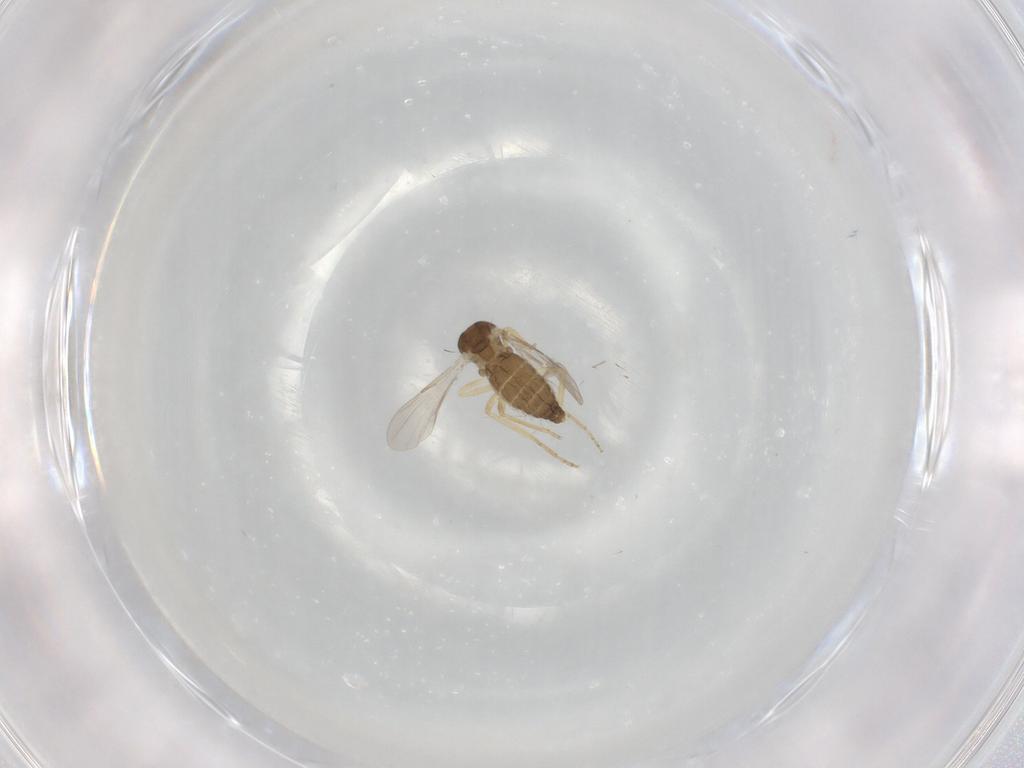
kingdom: Animalia
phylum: Arthropoda
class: Insecta
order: Diptera
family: Ceratopogonidae
